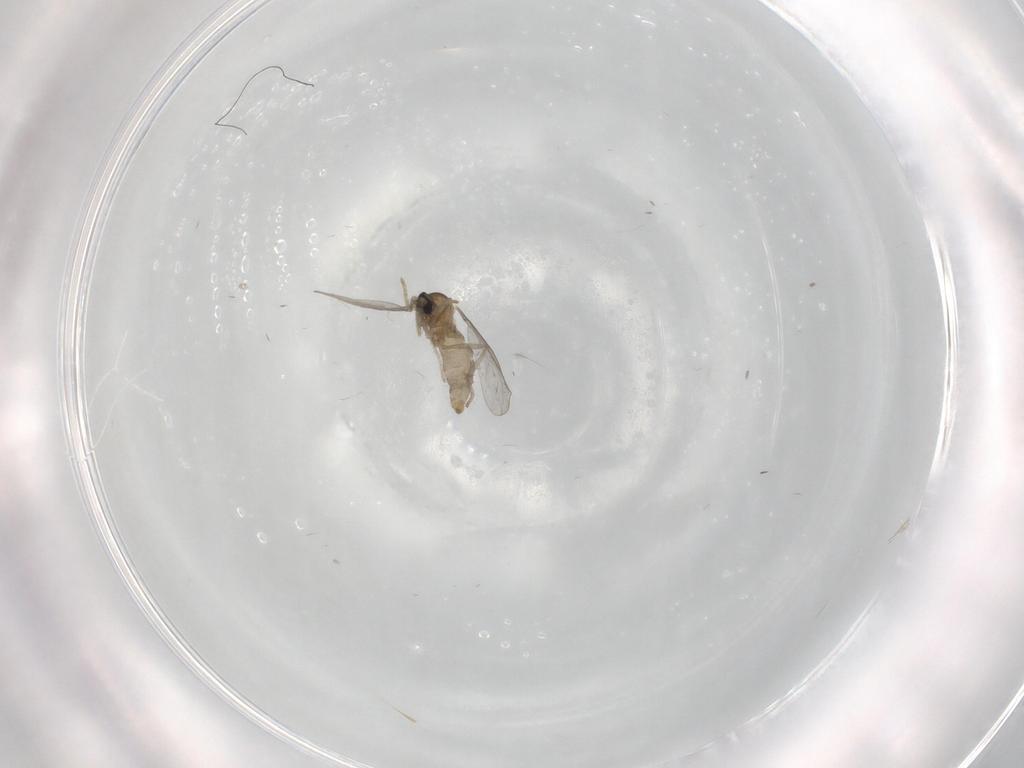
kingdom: Animalia
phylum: Arthropoda
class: Insecta
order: Diptera
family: Cecidomyiidae
